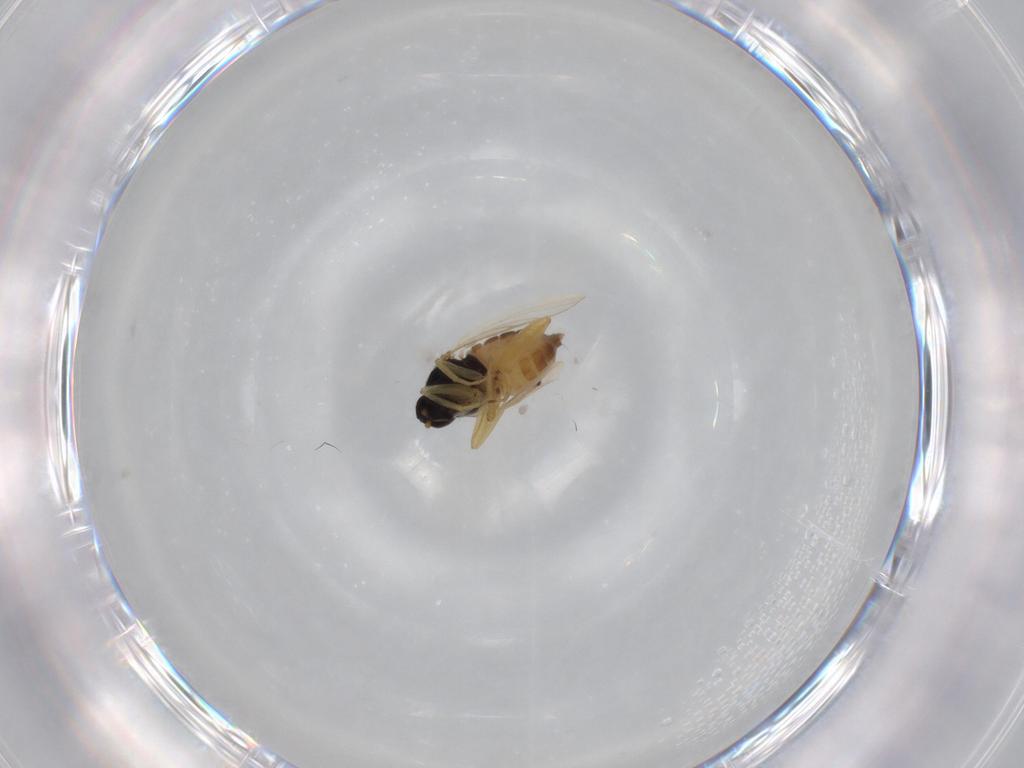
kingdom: Animalia
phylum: Arthropoda
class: Insecta
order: Diptera
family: Hybotidae
